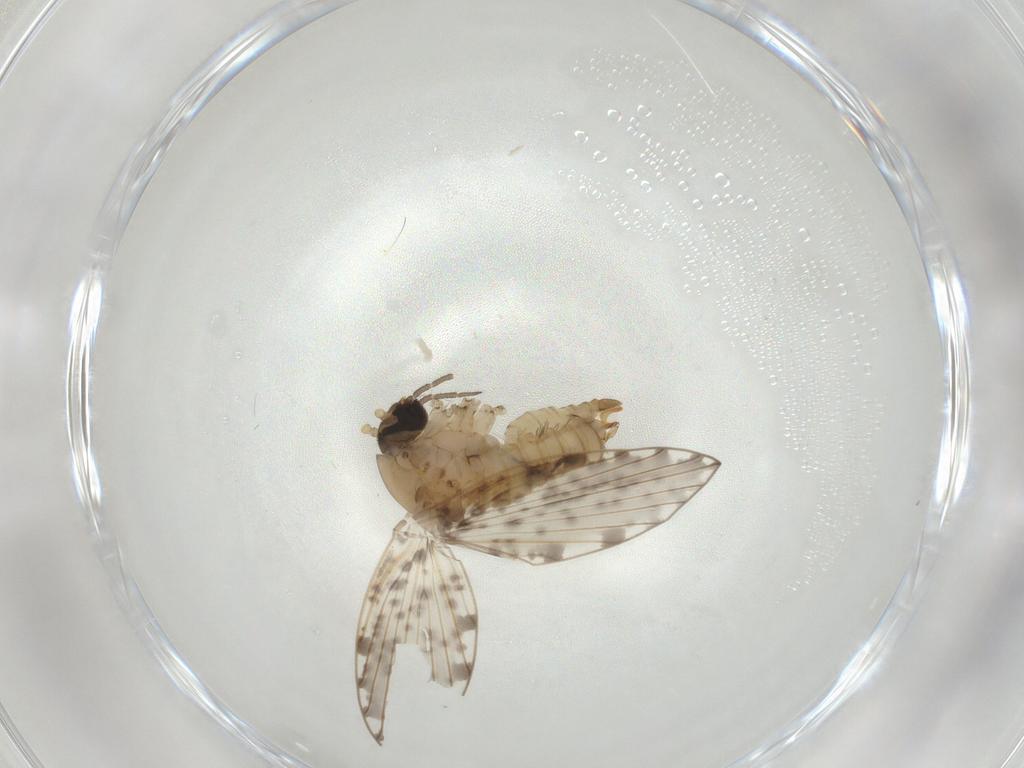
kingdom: Animalia
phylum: Arthropoda
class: Insecta
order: Diptera
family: Psychodidae
